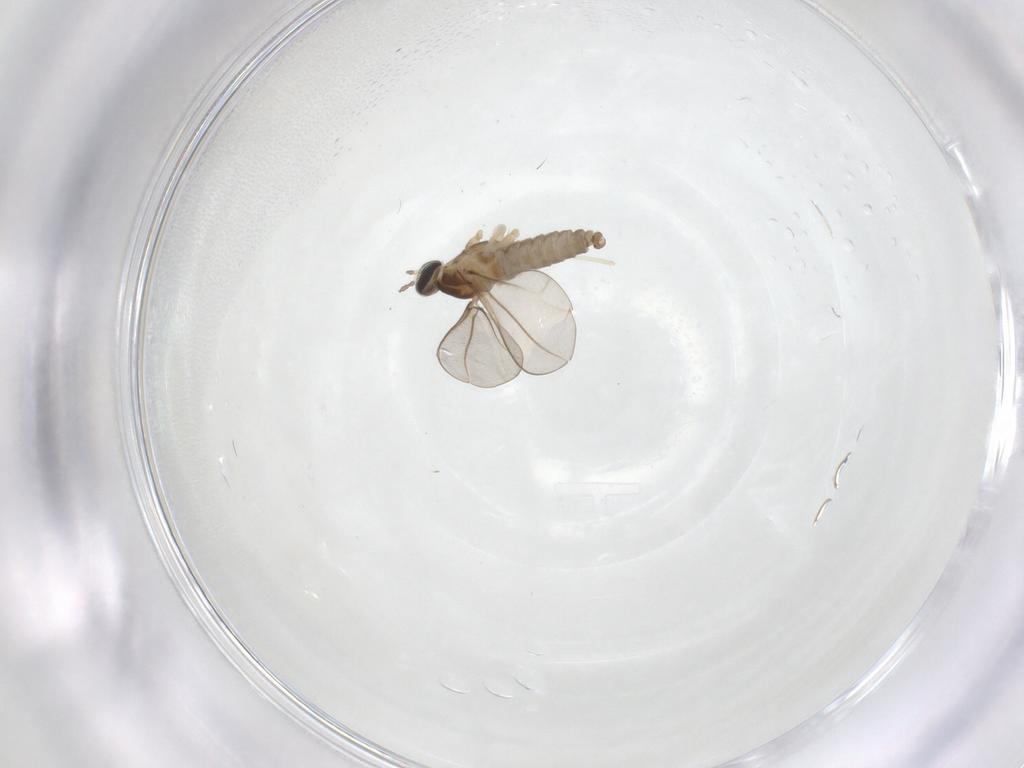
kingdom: Animalia
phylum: Arthropoda
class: Insecta
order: Diptera
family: Cecidomyiidae
